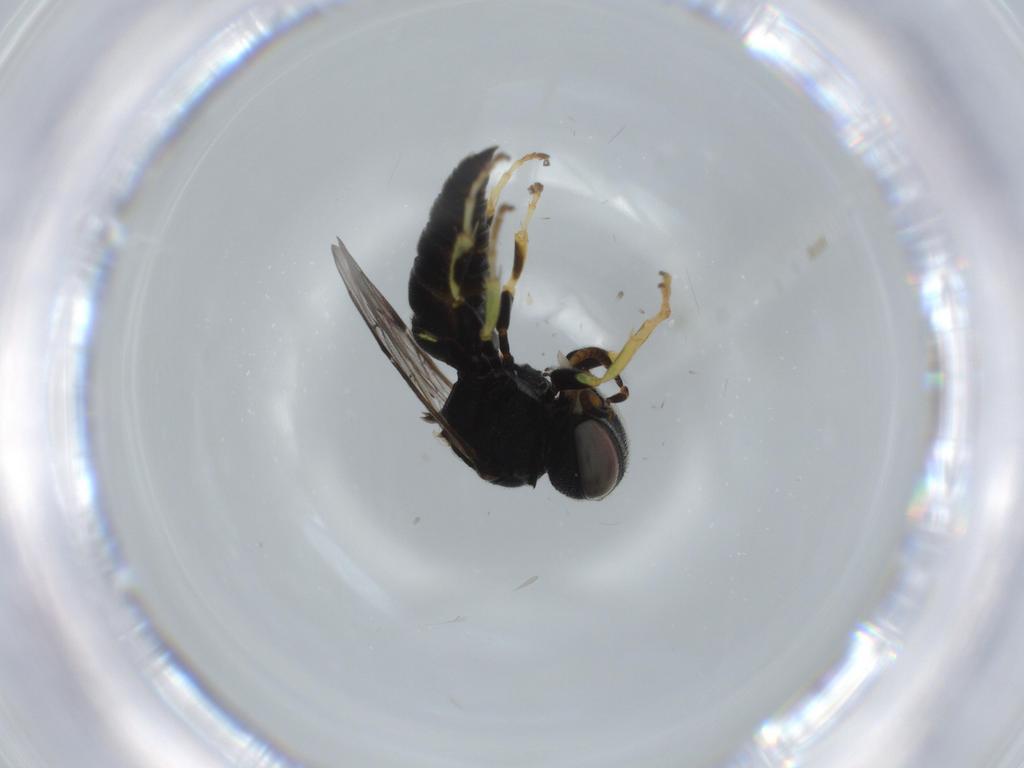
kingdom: Animalia
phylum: Arthropoda
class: Insecta
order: Hymenoptera
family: Crabronidae
